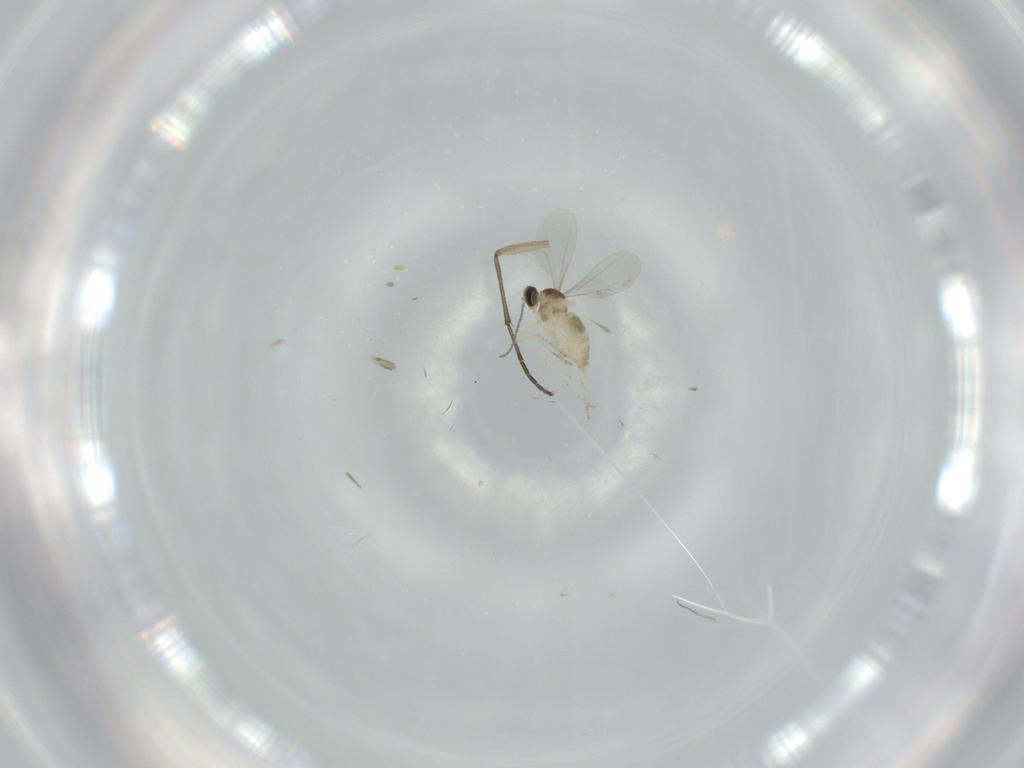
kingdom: Animalia
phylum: Arthropoda
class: Insecta
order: Diptera
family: Cecidomyiidae
